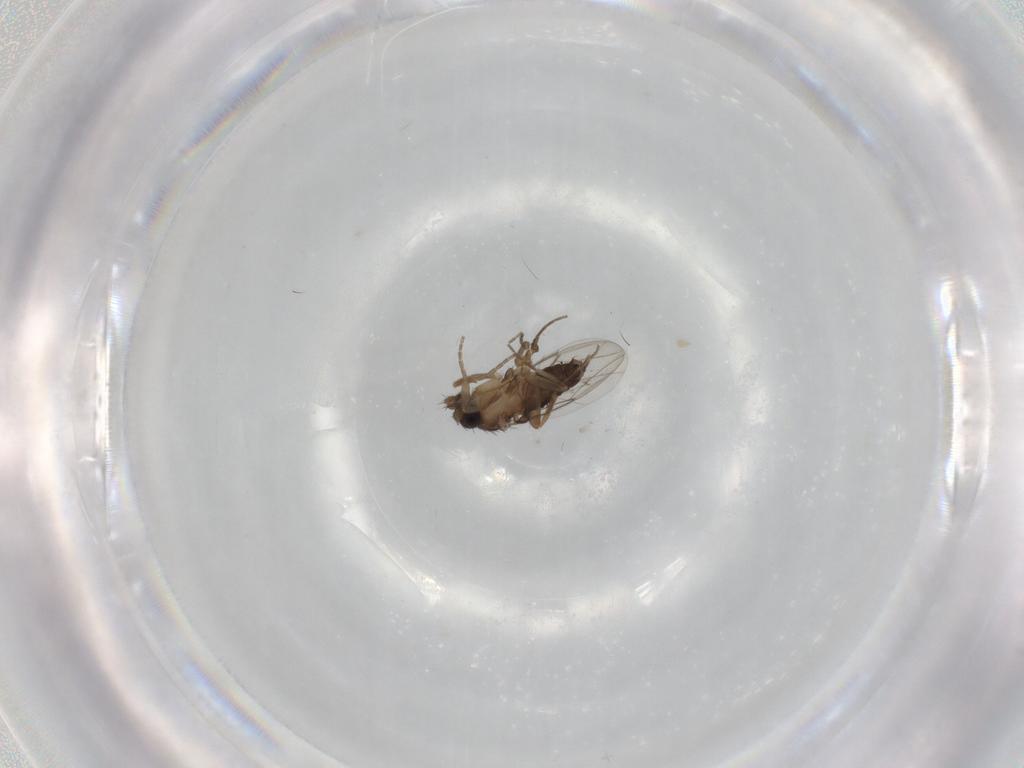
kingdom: Animalia
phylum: Arthropoda
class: Insecta
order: Diptera
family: Phoridae
